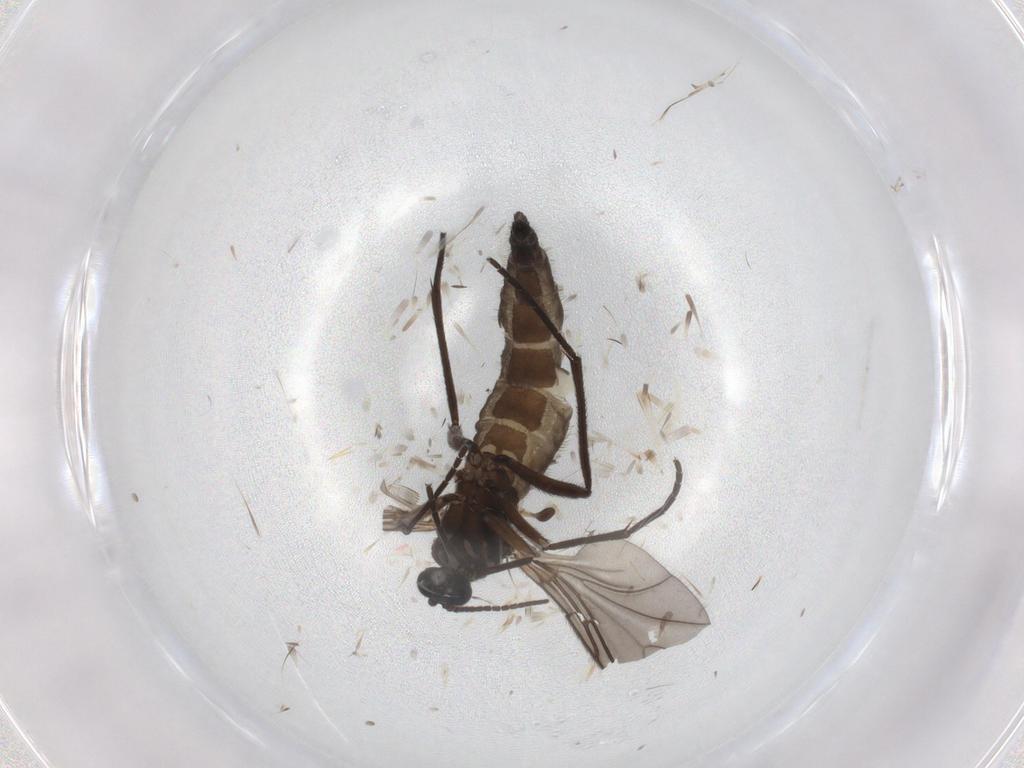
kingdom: Animalia
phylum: Arthropoda
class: Insecta
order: Diptera
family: Sciaridae
